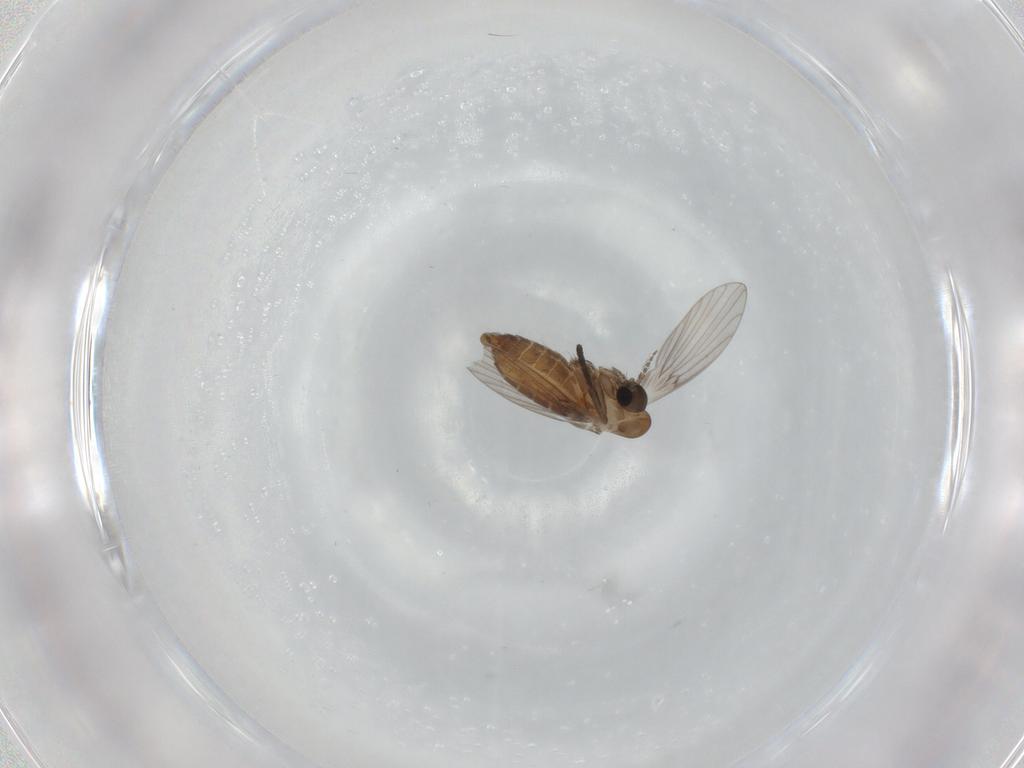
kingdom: Animalia
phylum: Arthropoda
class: Insecta
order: Diptera
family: Psychodidae
